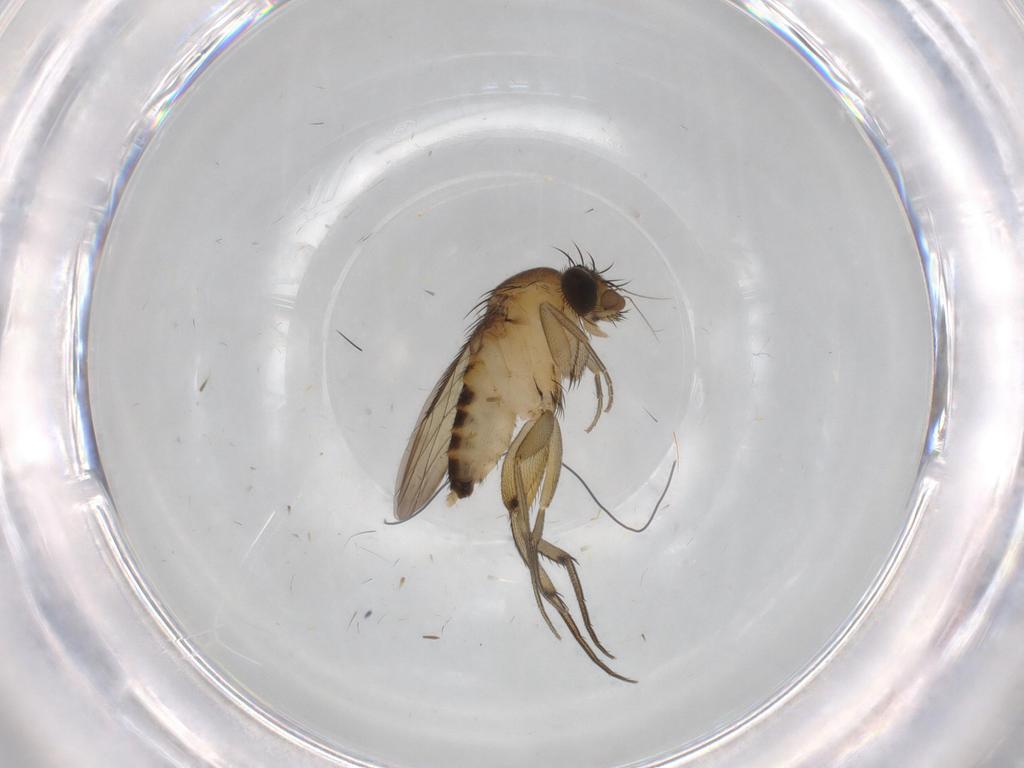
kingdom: Animalia
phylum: Arthropoda
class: Insecta
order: Diptera
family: Phoridae
